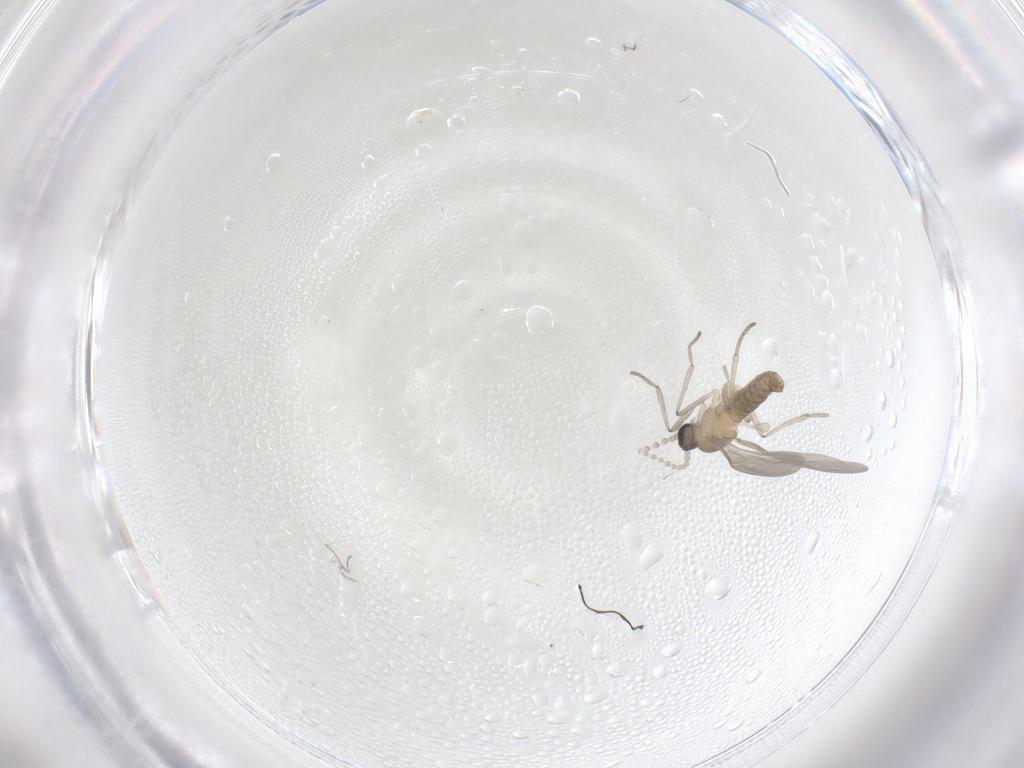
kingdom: Animalia
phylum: Arthropoda
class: Insecta
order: Diptera
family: Cecidomyiidae
